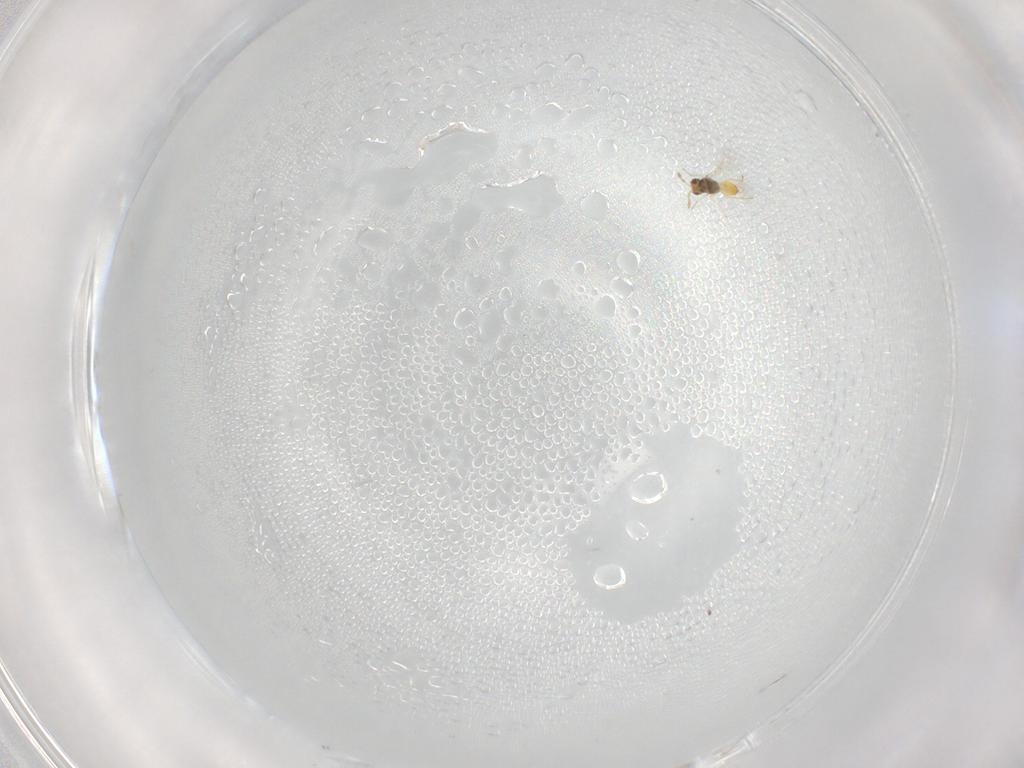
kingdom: Animalia
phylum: Arthropoda
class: Insecta
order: Hymenoptera
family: Eulophidae
